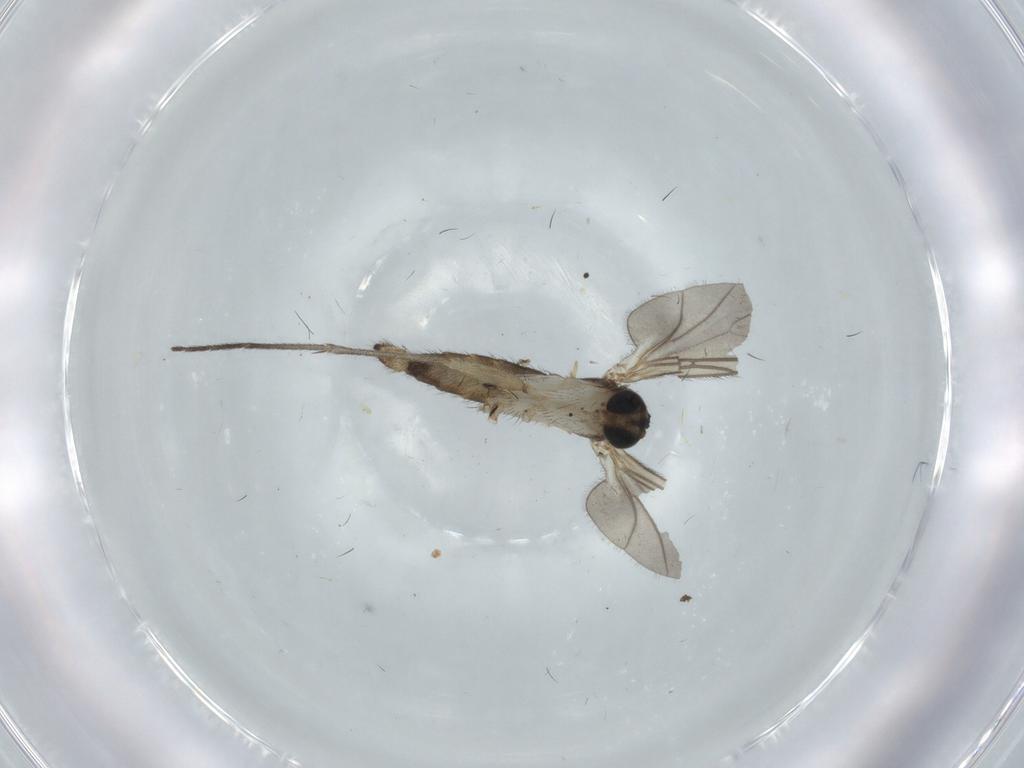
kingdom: Animalia
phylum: Arthropoda
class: Insecta
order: Diptera
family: Sciaridae
